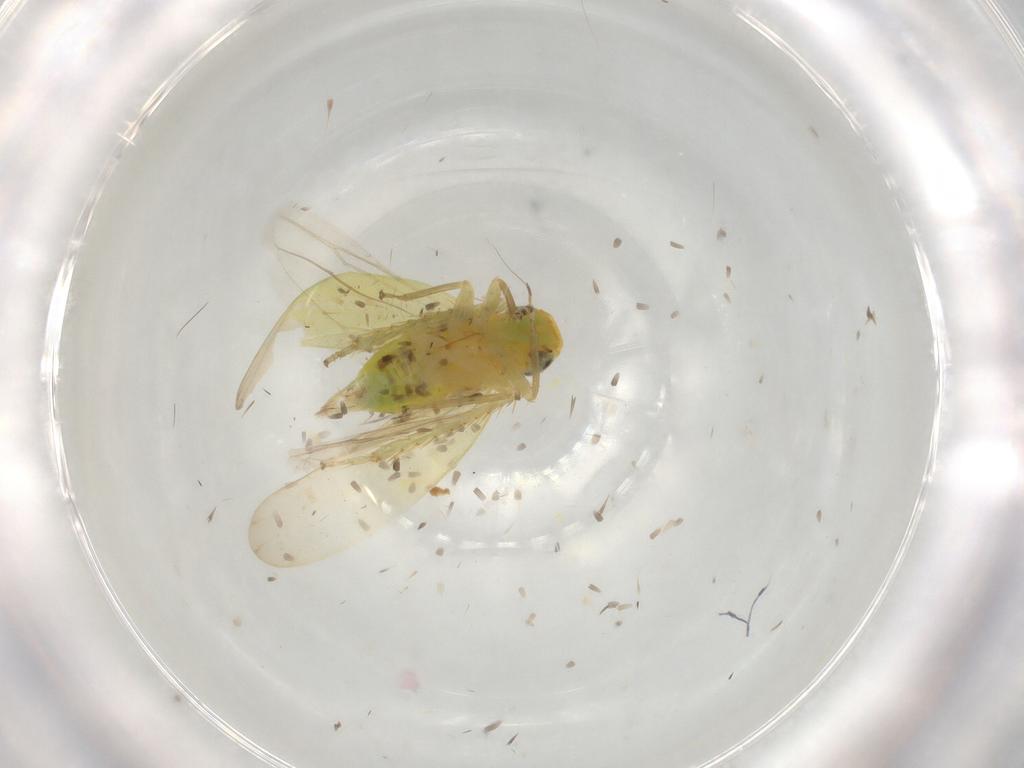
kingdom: Animalia
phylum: Arthropoda
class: Insecta
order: Hemiptera
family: Cicadellidae
